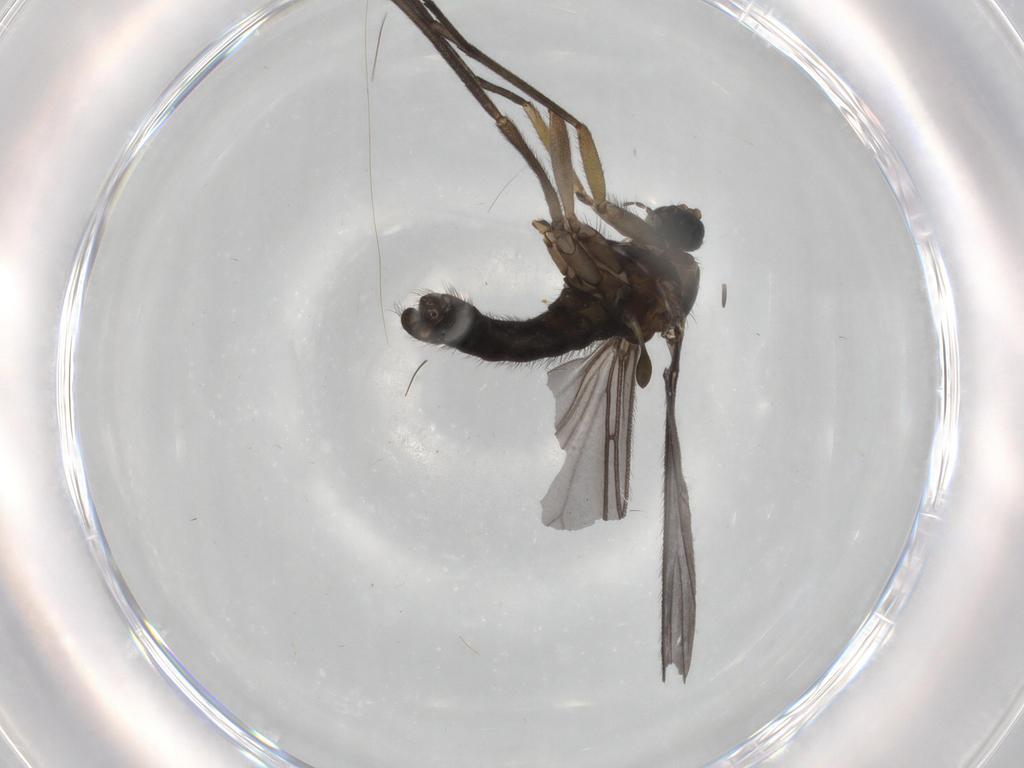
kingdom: Animalia
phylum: Arthropoda
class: Insecta
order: Diptera
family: Sciaridae
